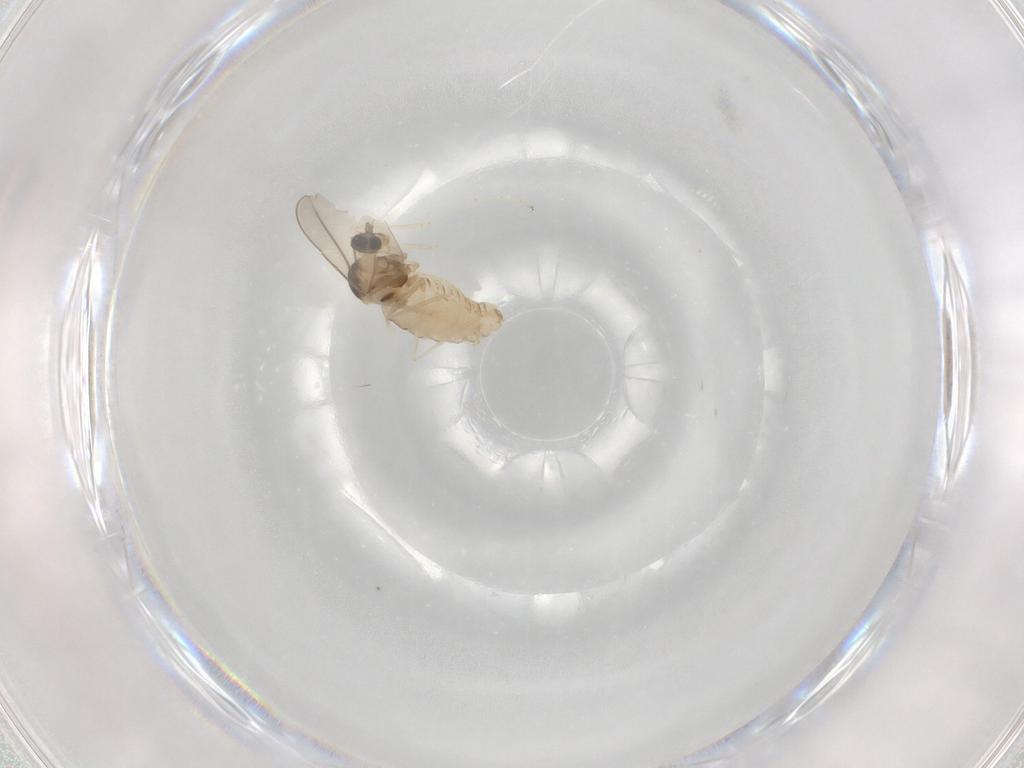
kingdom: Animalia
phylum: Arthropoda
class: Insecta
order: Diptera
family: Cecidomyiidae
